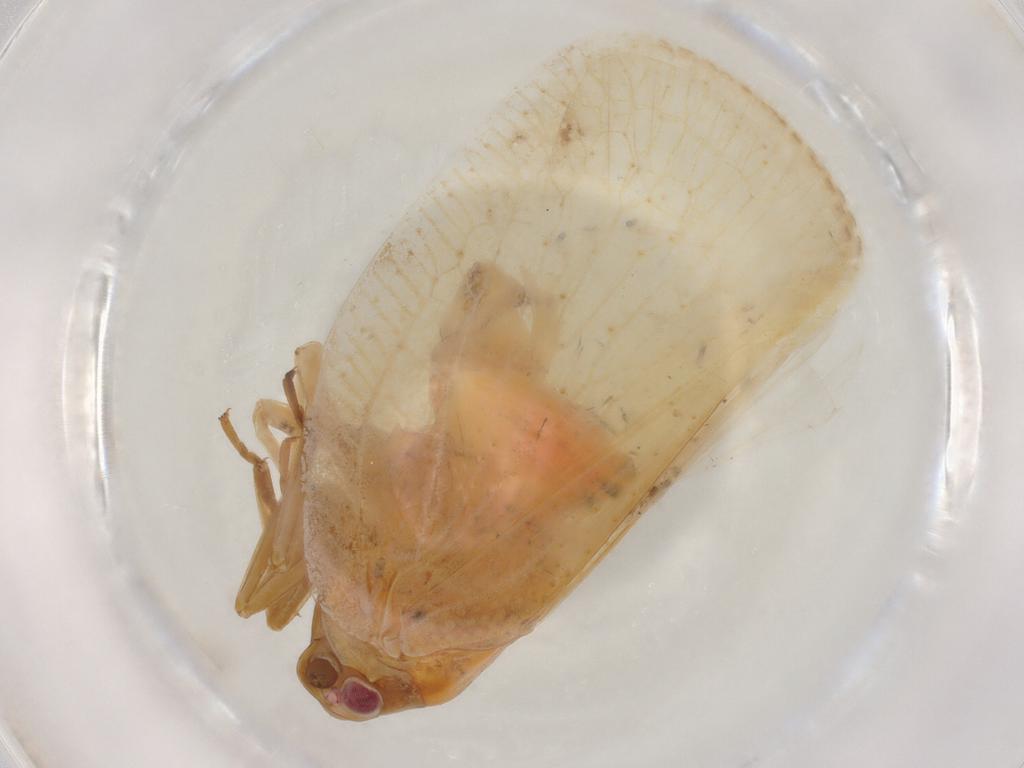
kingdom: Animalia
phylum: Arthropoda
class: Insecta
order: Hemiptera
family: Flatidae
